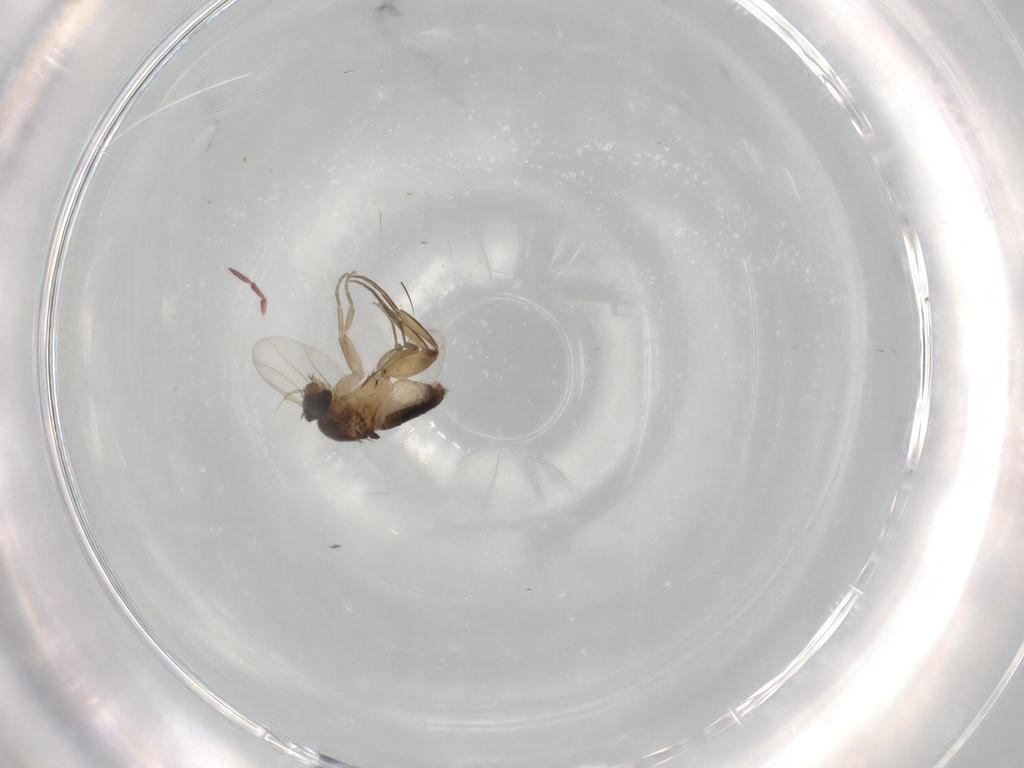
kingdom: Animalia
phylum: Arthropoda
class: Insecta
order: Diptera
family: Phoridae
